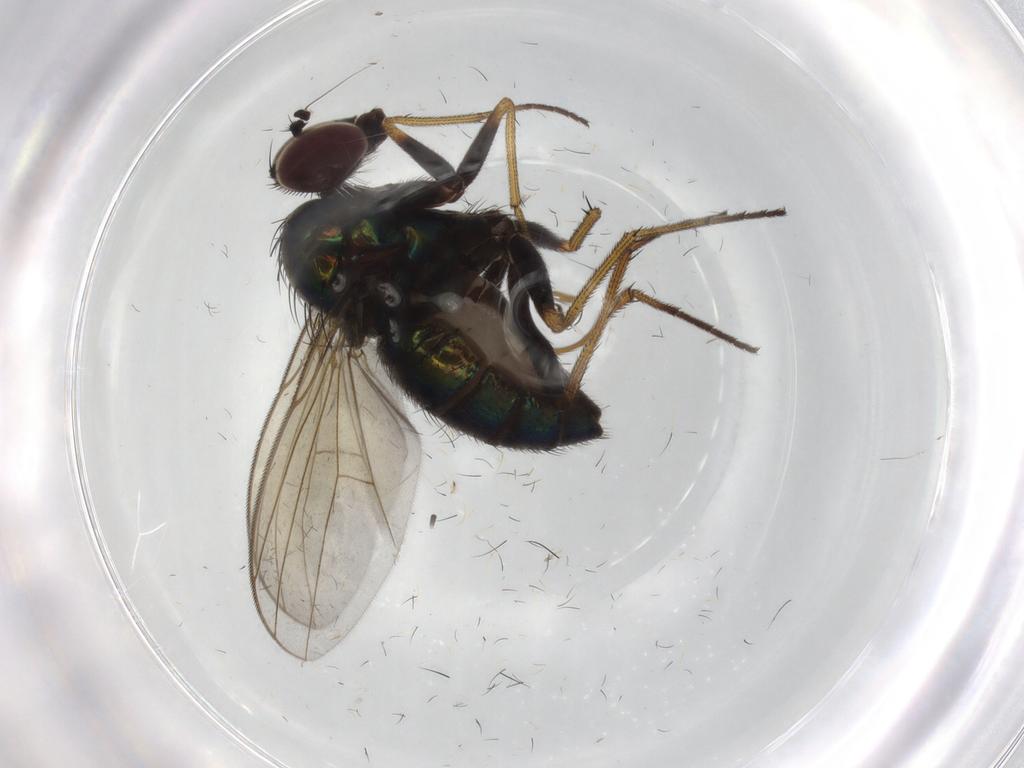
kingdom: Animalia
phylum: Arthropoda
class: Insecta
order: Diptera
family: Dolichopodidae
